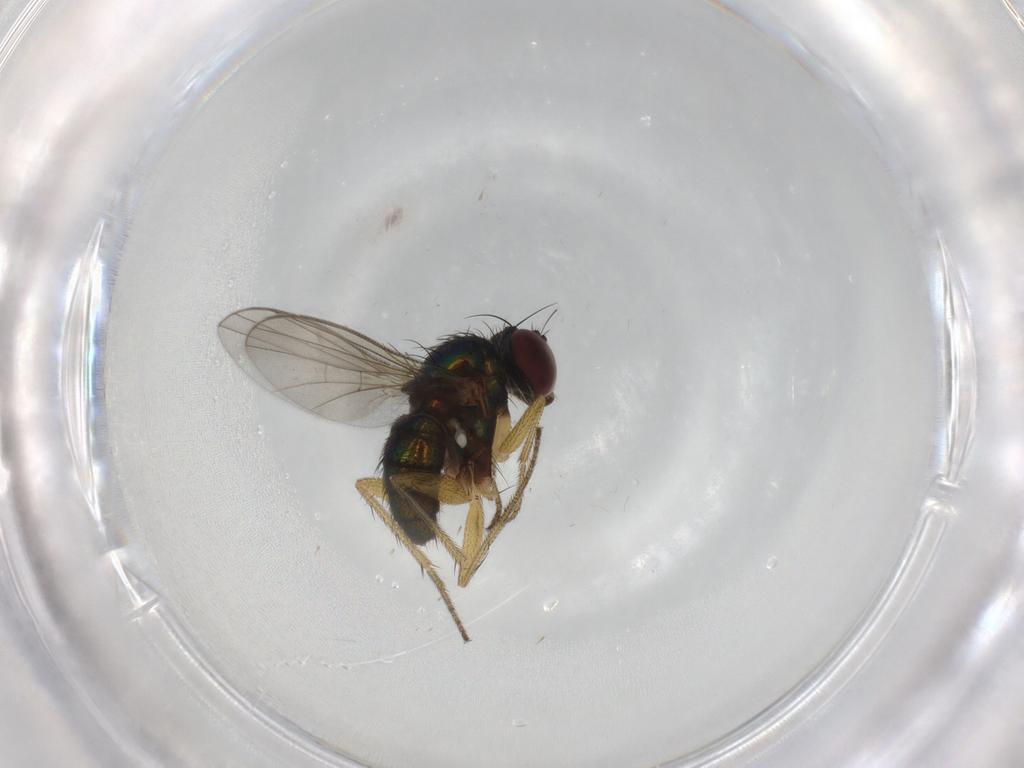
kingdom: Animalia
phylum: Arthropoda
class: Insecta
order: Diptera
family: Dolichopodidae
